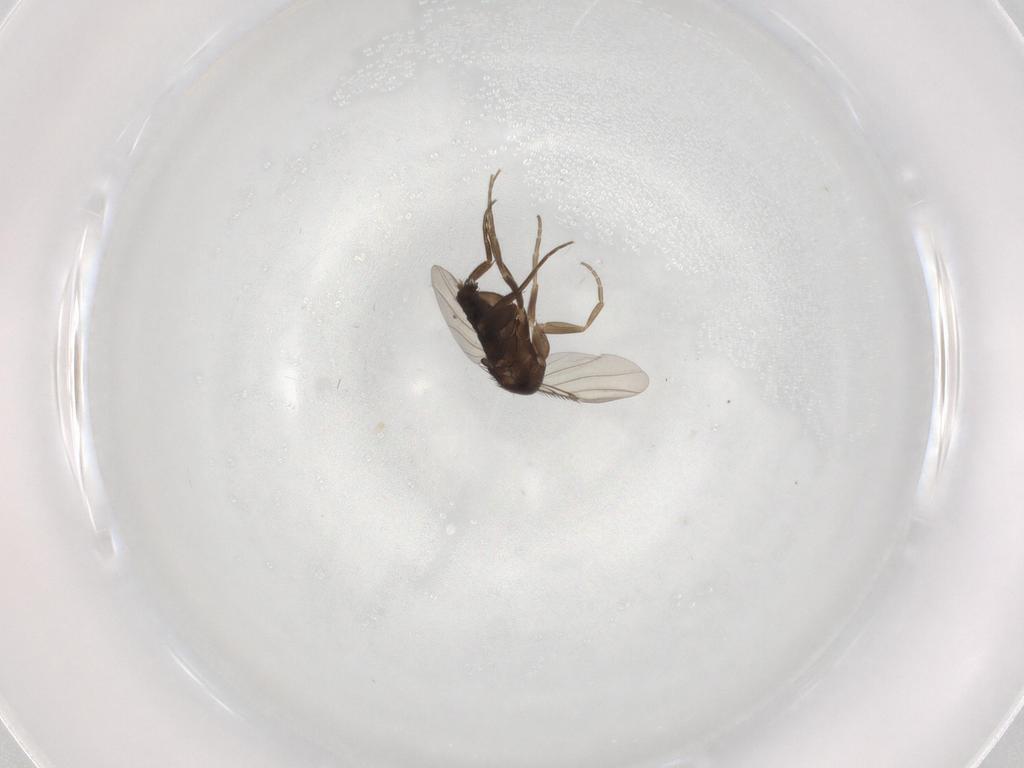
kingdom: Animalia
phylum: Arthropoda
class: Insecta
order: Diptera
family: Phoridae
